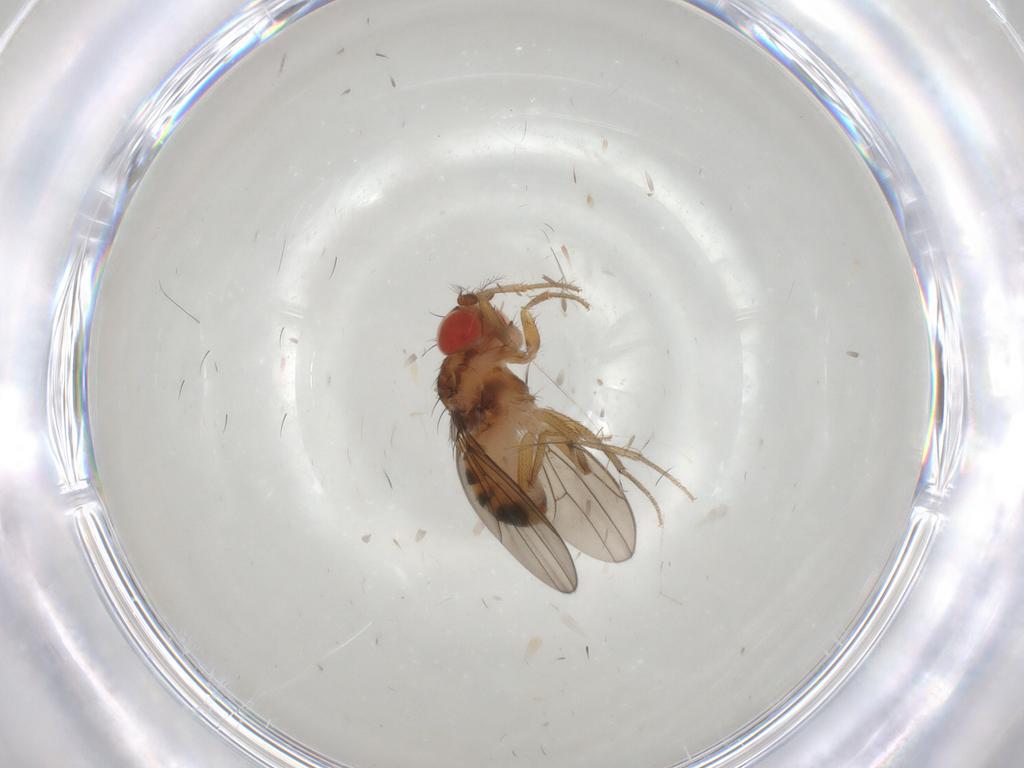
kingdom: Animalia
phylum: Arthropoda
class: Insecta
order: Diptera
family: Drosophilidae
